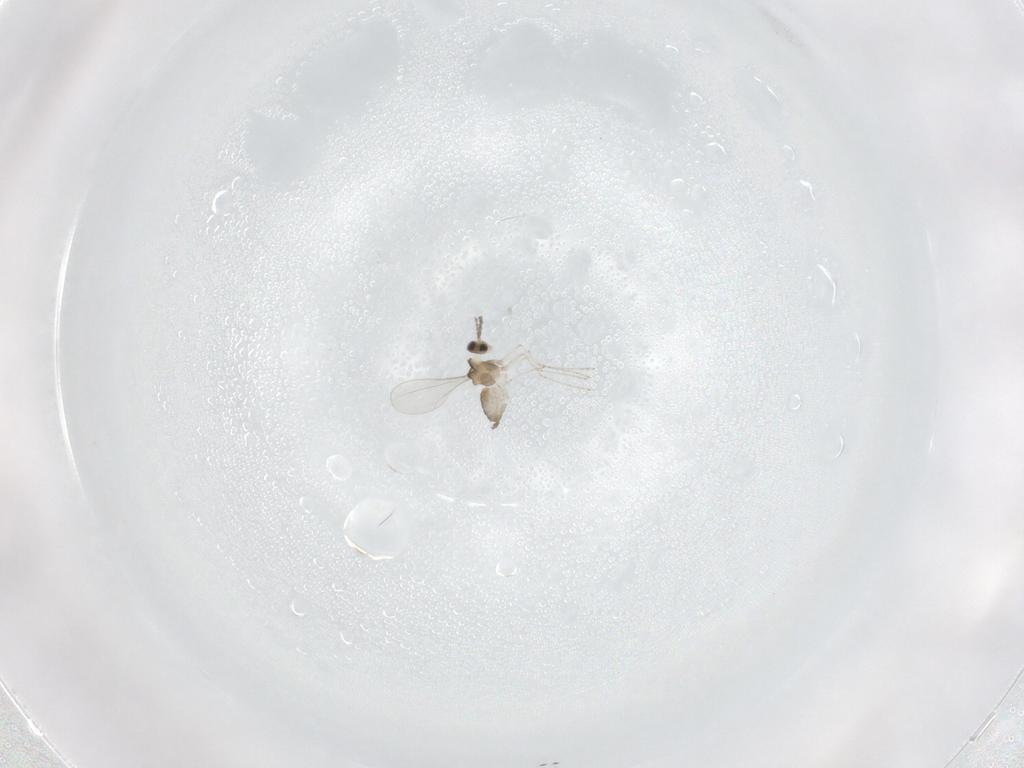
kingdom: Animalia
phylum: Arthropoda
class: Insecta
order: Diptera
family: Cecidomyiidae
